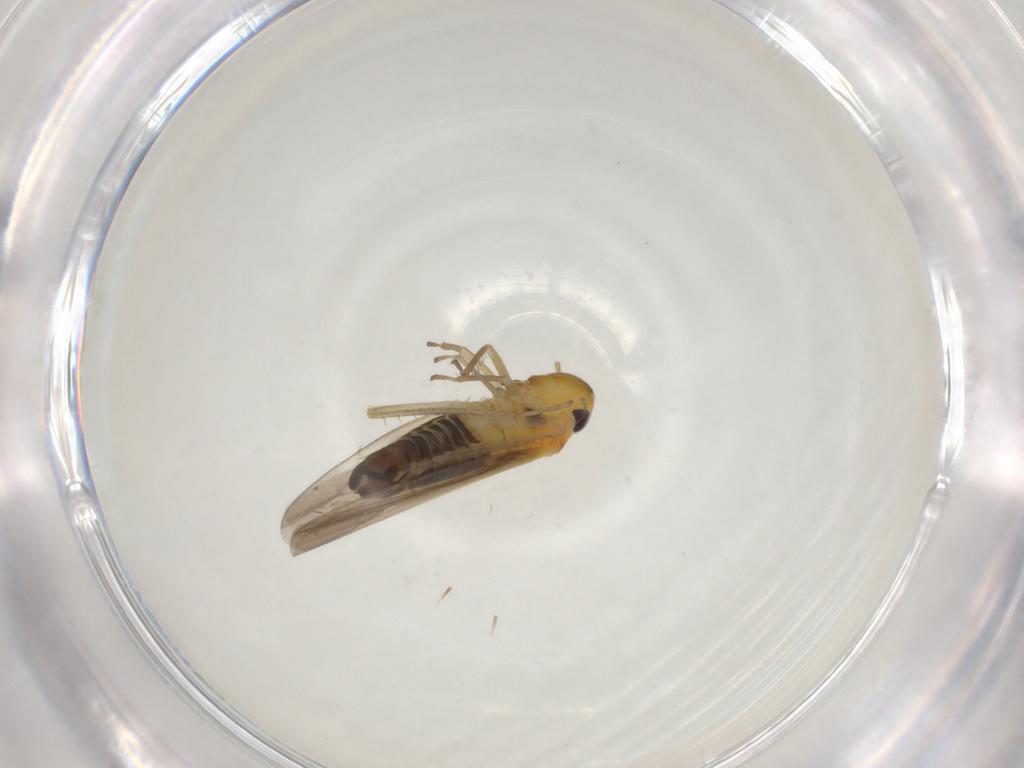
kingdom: Animalia
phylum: Arthropoda
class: Insecta
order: Hemiptera
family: Cicadellidae
